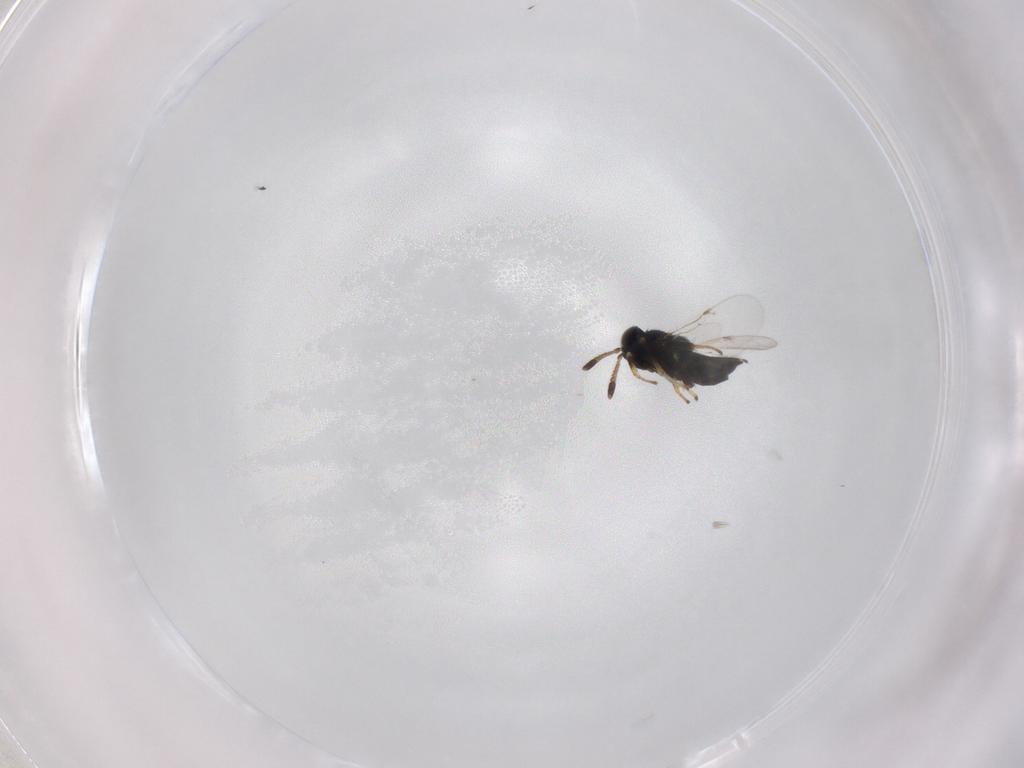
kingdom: Animalia
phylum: Arthropoda
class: Insecta
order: Hymenoptera
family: Encyrtidae
